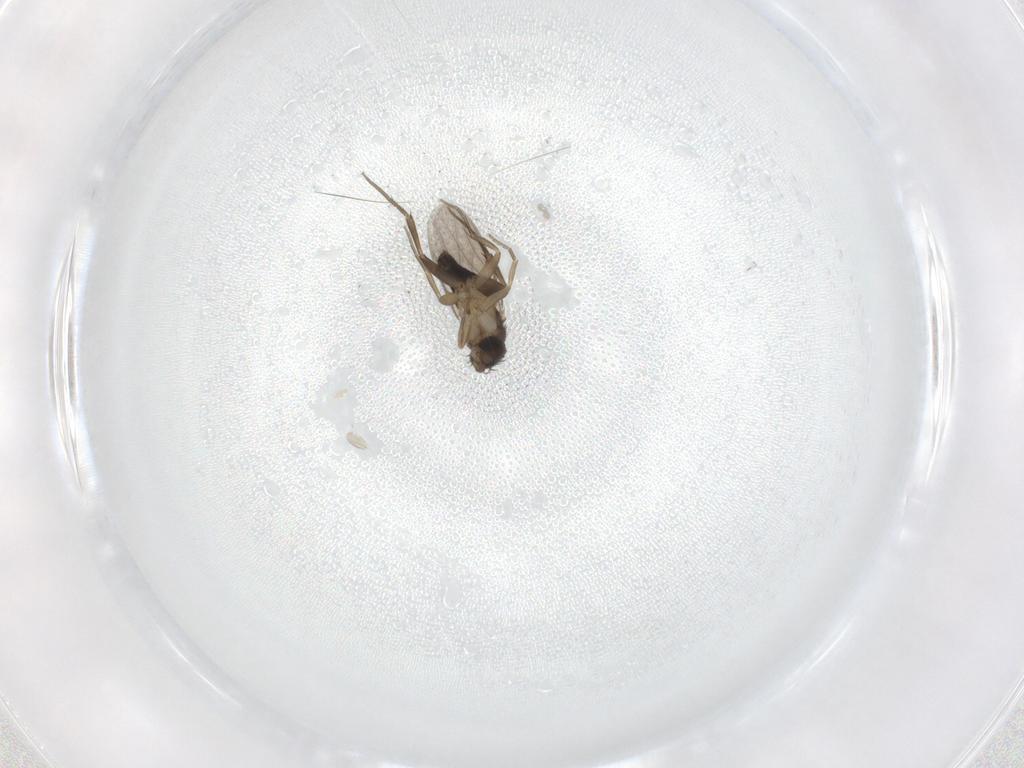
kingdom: Animalia
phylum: Arthropoda
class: Insecta
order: Diptera
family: Phoridae
